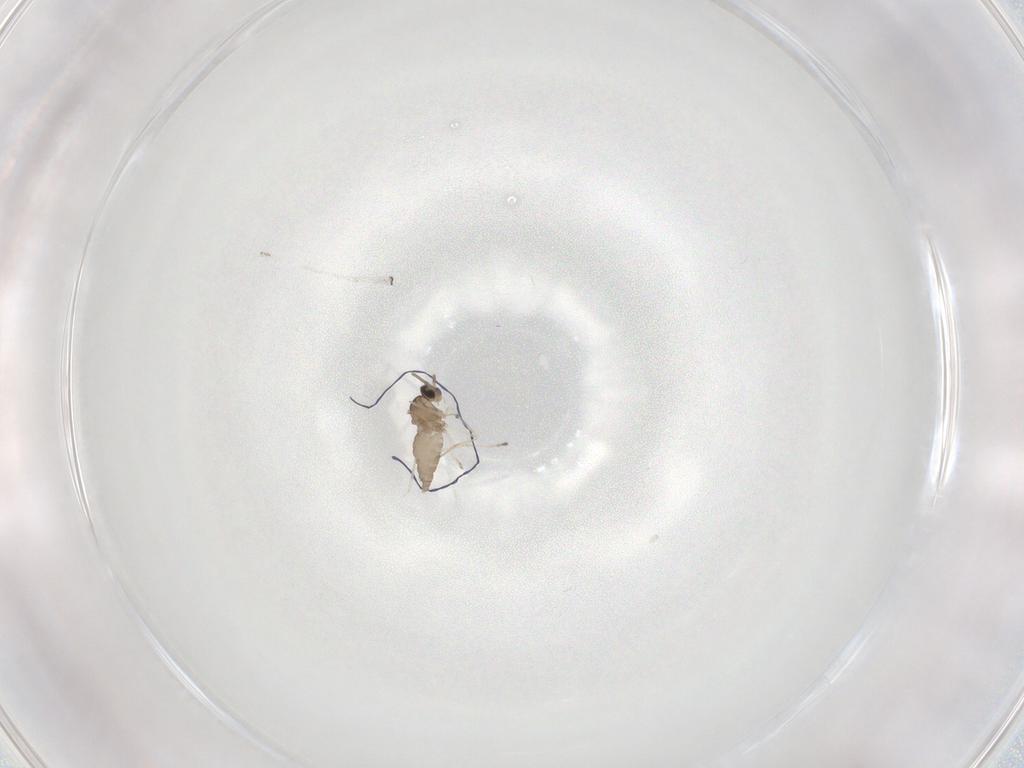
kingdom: Animalia
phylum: Arthropoda
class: Insecta
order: Diptera
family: Cecidomyiidae
